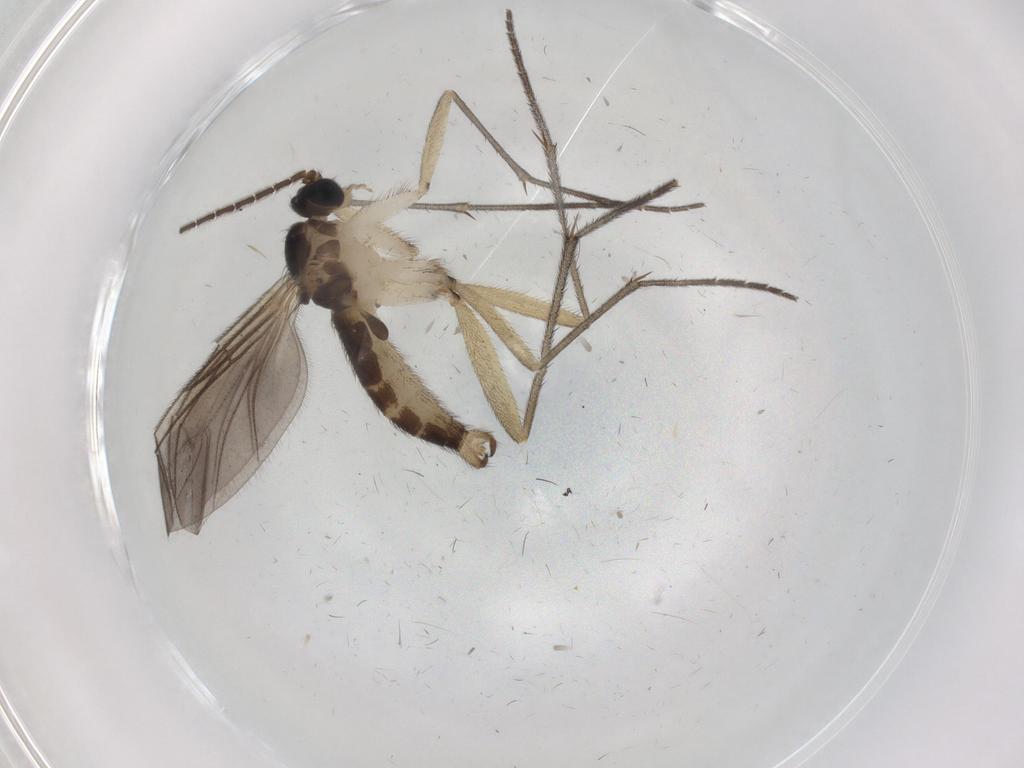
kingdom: Animalia
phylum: Arthropoda
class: Insecta
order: Diptera
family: Sciaridae
